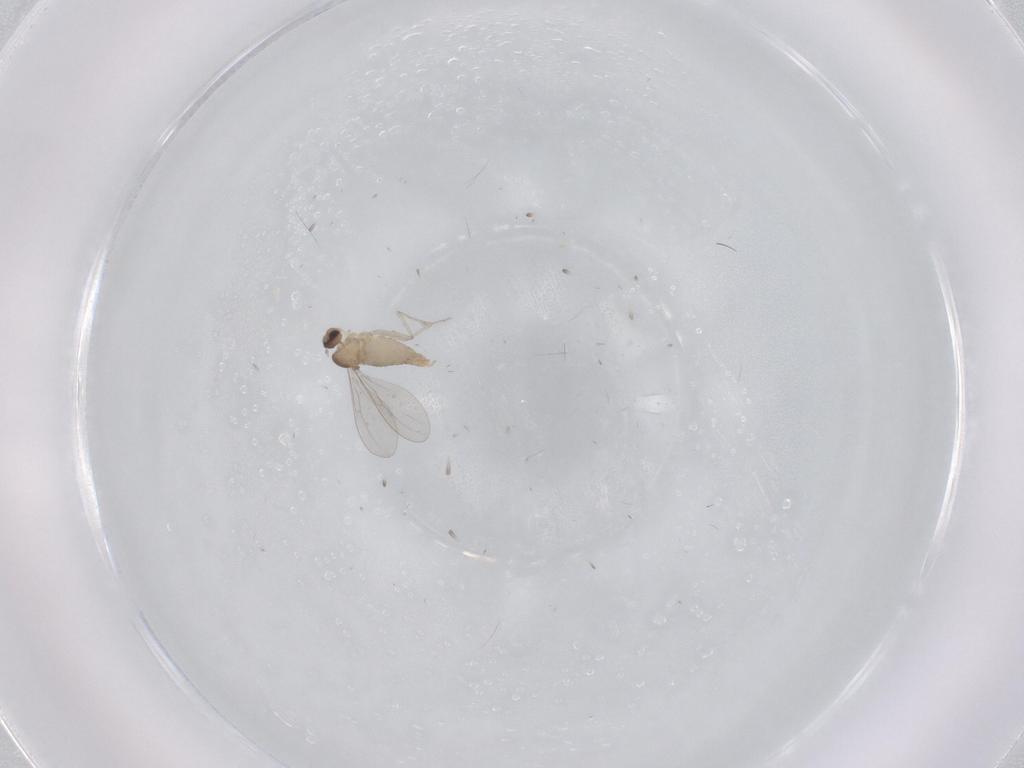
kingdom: Animalia
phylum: Arthropoda
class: Insecta
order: Diptera
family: Cecidomyiidae
